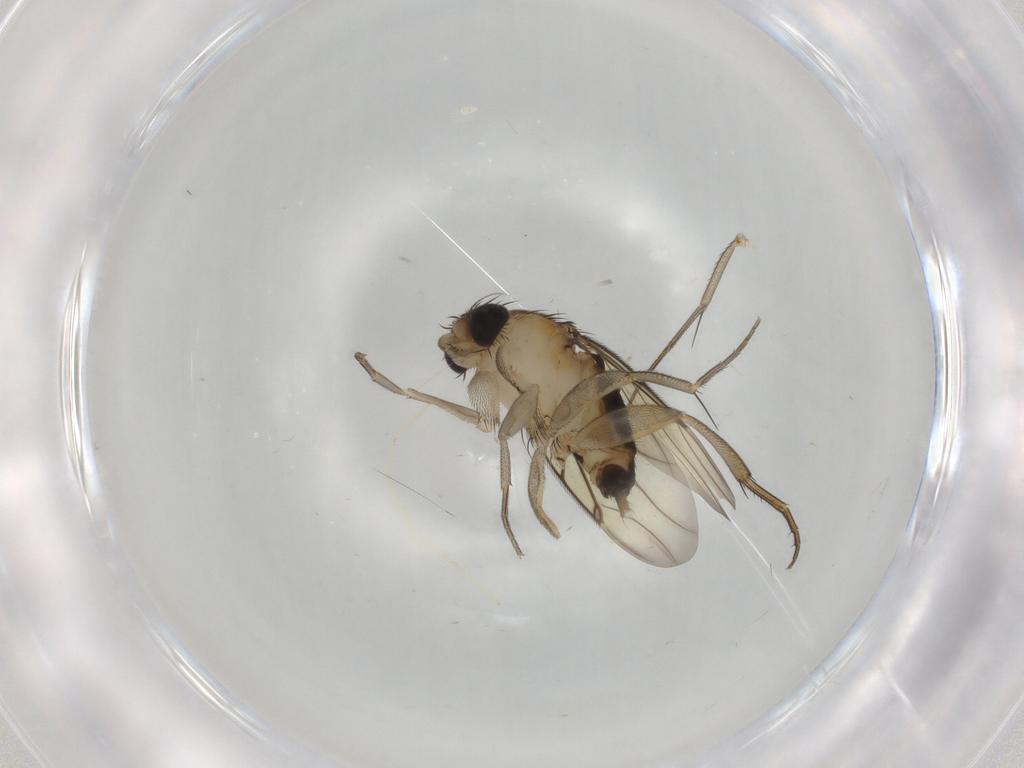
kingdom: Animalia
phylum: Arthropoda
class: Insecta
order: Diptera
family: Chironomidae
